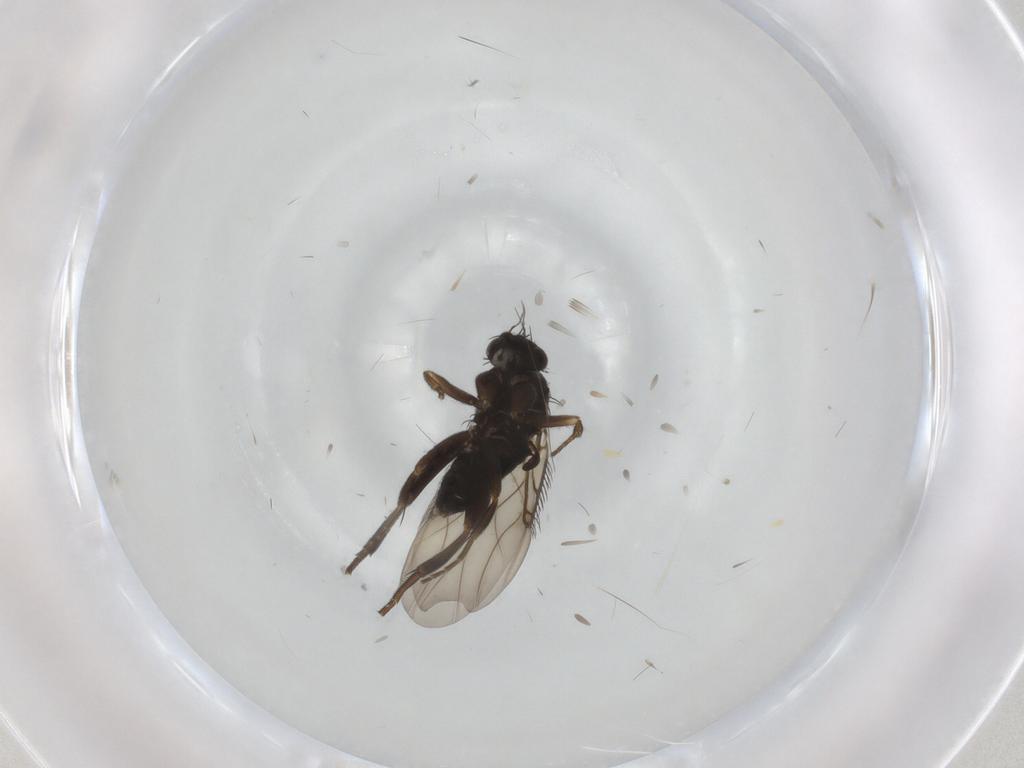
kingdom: Animalia
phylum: Arthropoda
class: Insecta
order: Diptera
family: Phoridae
